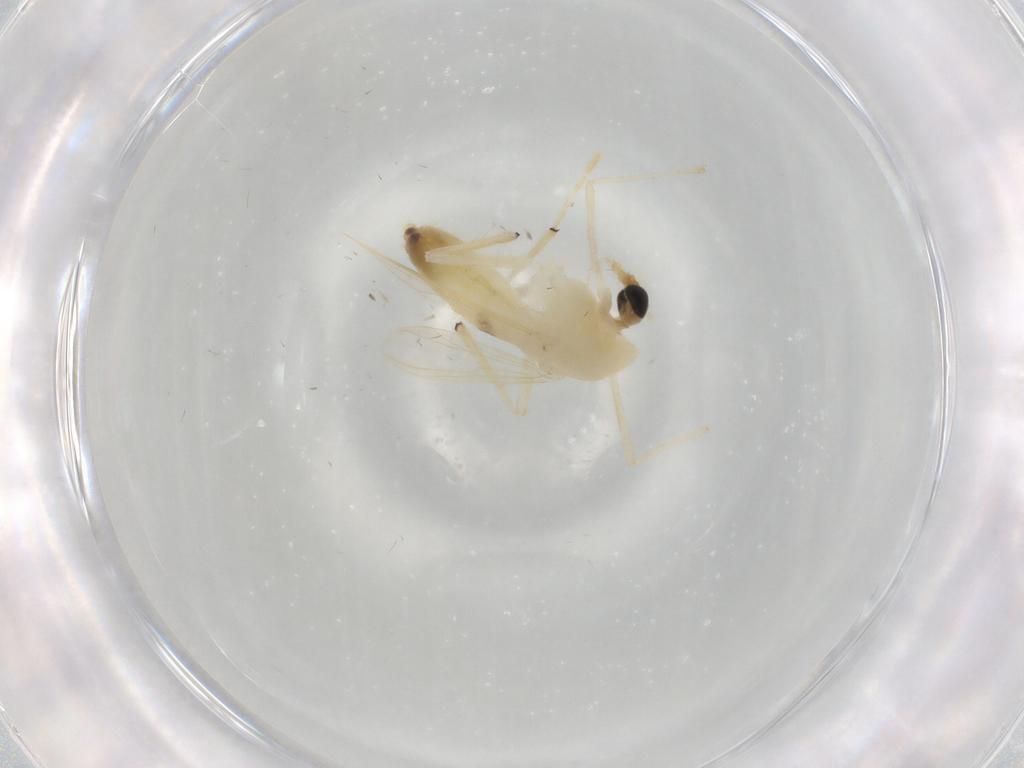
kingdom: Animalia
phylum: Arthropoda
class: Insecta
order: Diptera
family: Chironomidae
